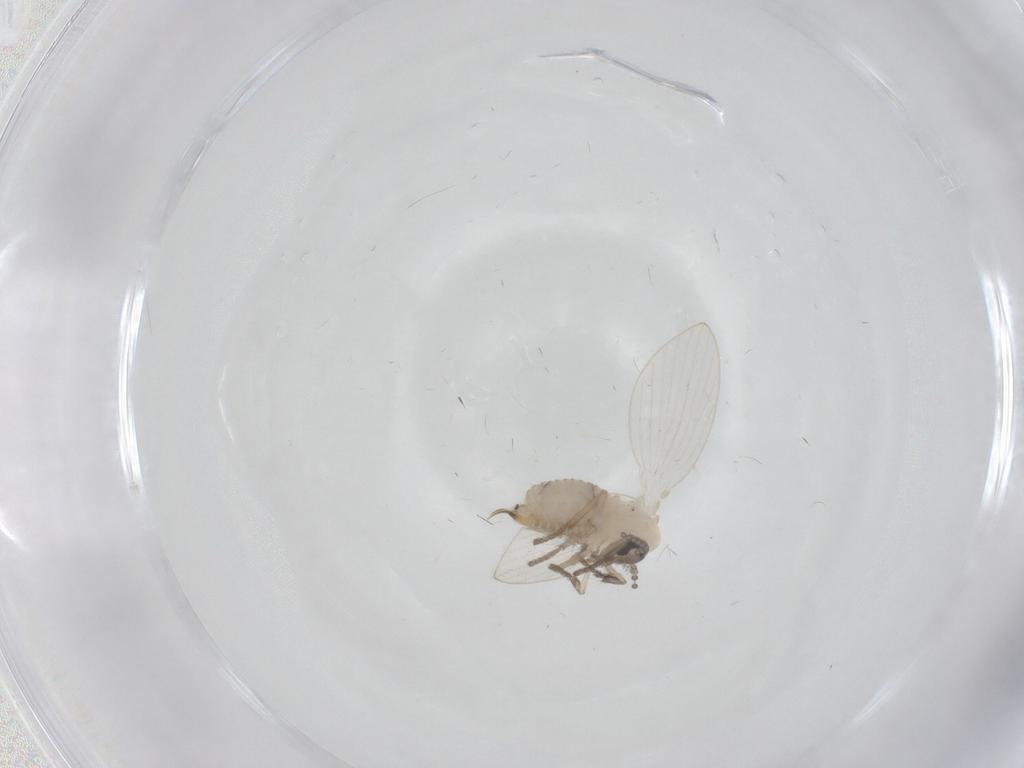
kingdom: Animalia
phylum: Arthropoda
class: Insecta
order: Diptera
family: Psychodidae
